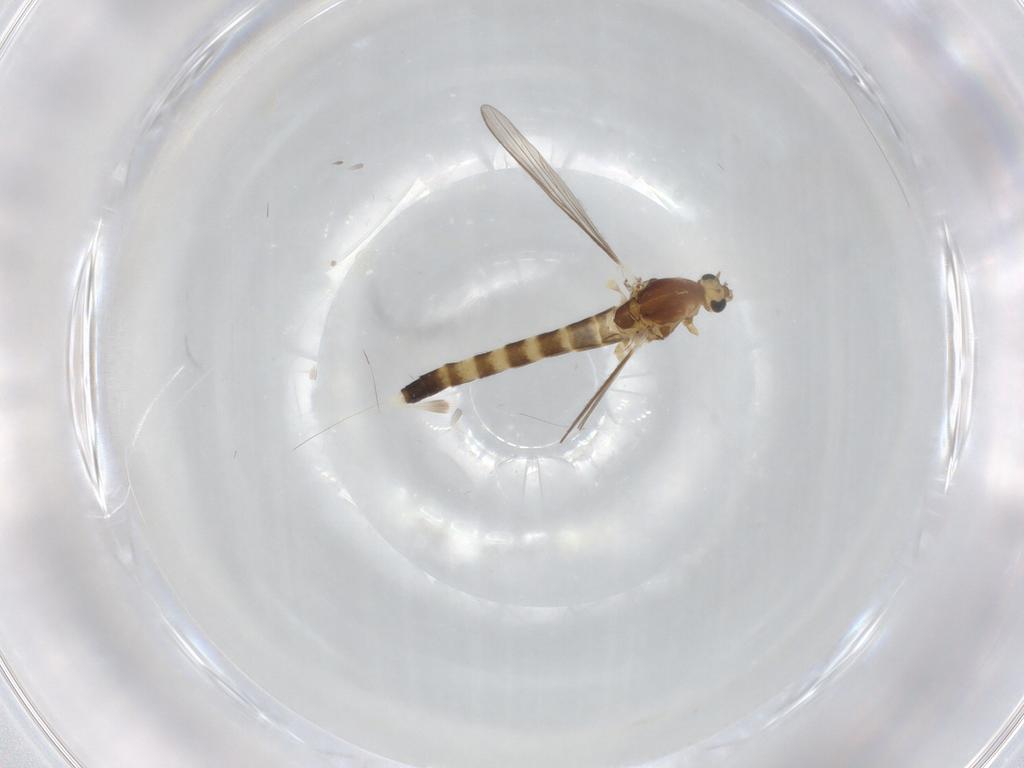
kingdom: Animalia
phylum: Arthropoda
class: Insecta
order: Diptera
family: Chironomidae
